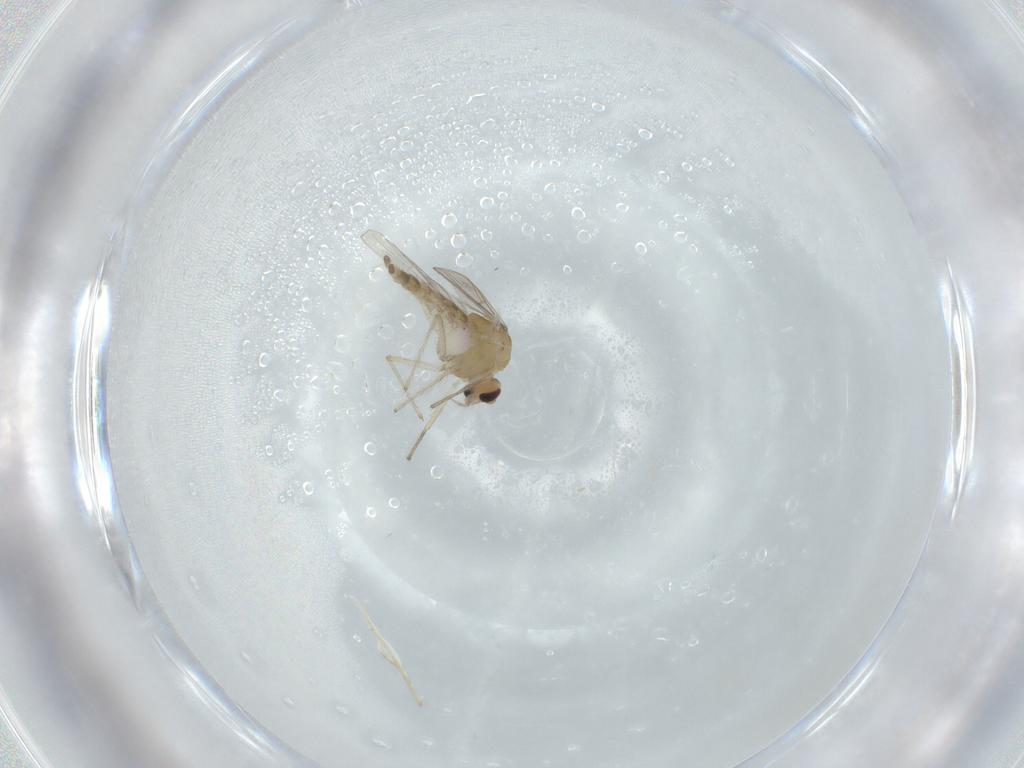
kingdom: Animalia
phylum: Arthropoda
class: Insecta
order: Diptera
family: Chironomidae
